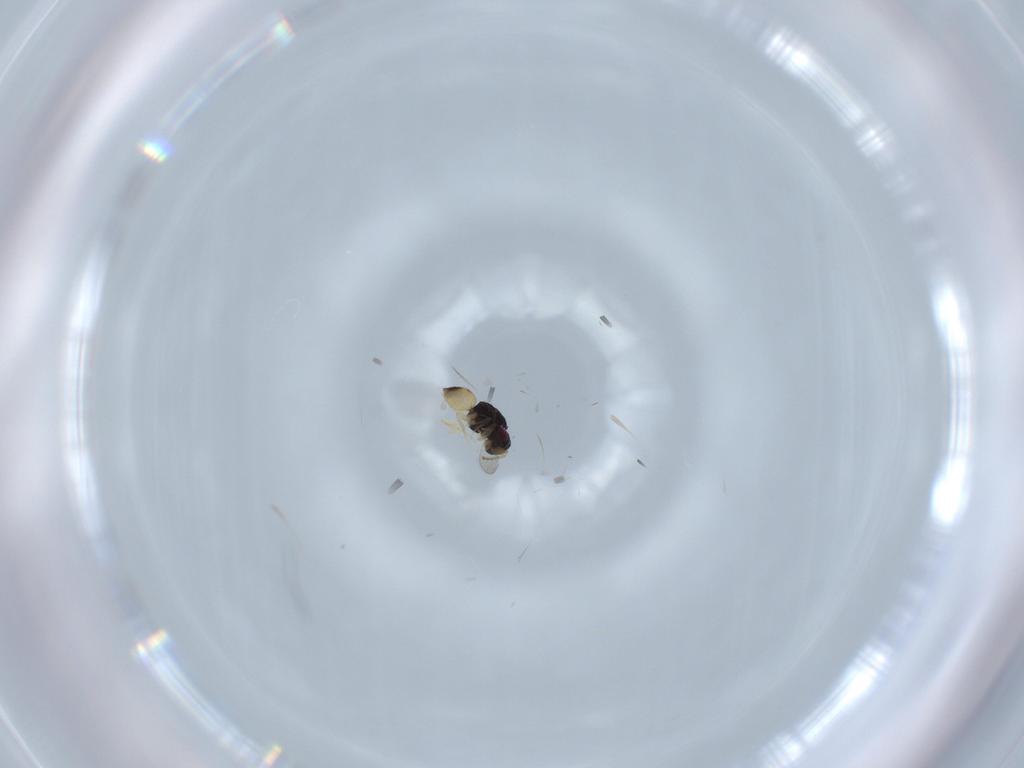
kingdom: Animalia
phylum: Arthropoda
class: Insecta
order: Hymenoptera
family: Ceraphronidae
